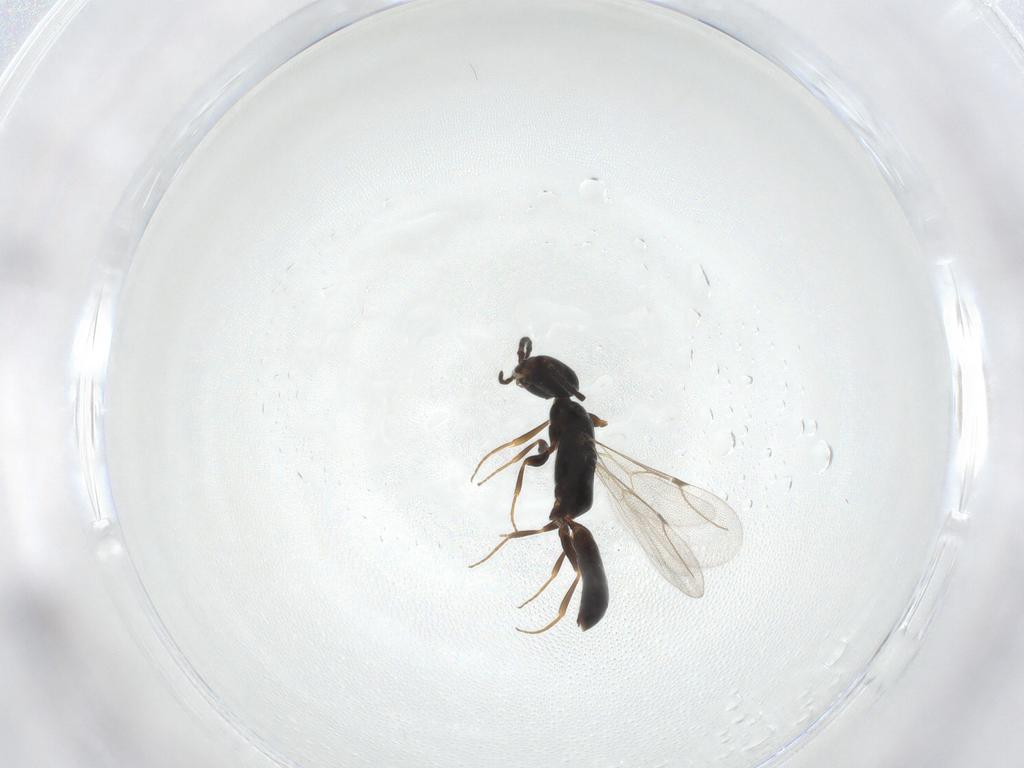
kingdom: Animalia
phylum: Arthropoda
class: Insecta
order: Hymenoptera
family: Bethylidae
